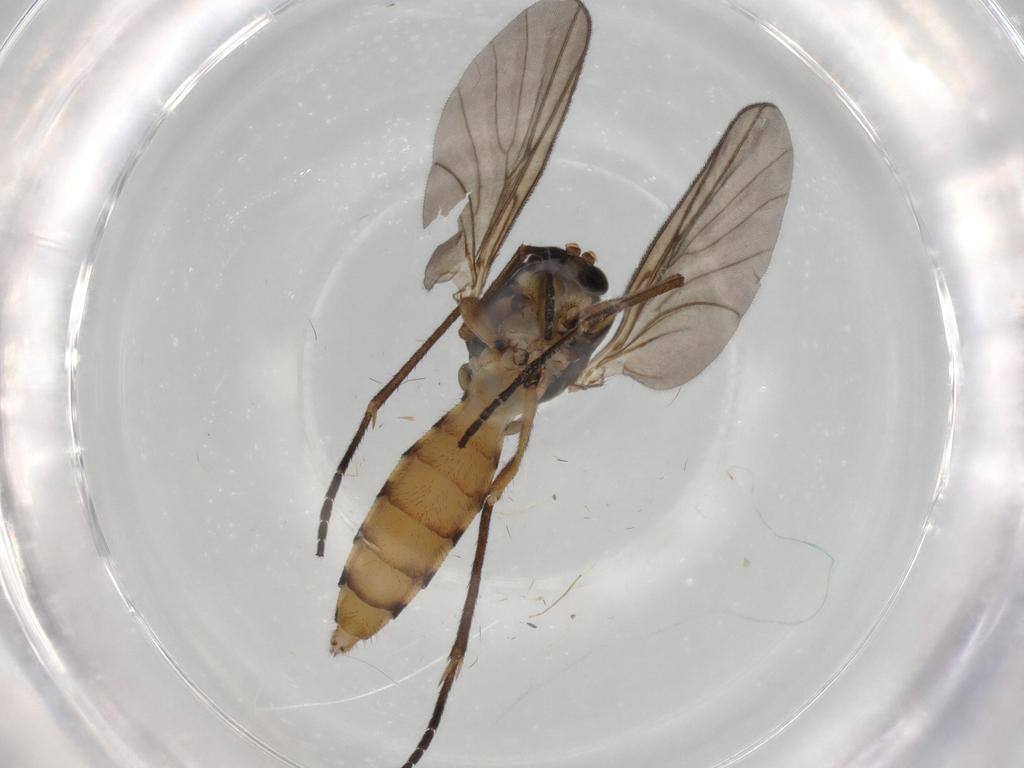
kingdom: Animalia
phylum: Arthropoda
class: Insecta
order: Diptera
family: Mycetophilidae
